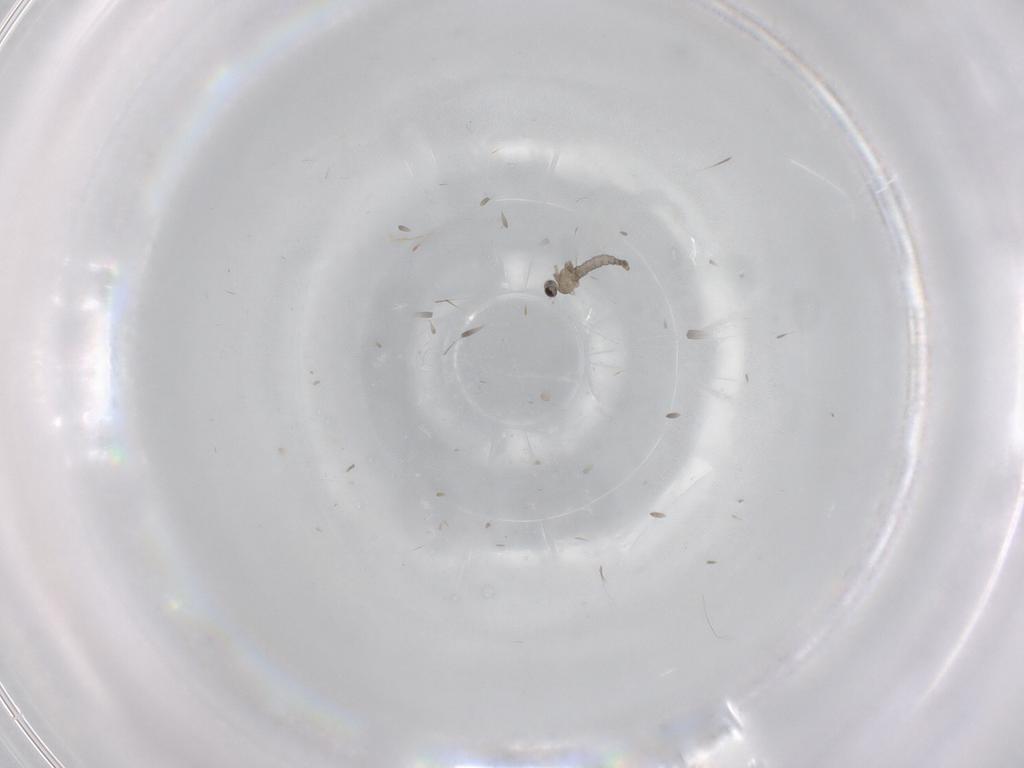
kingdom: Animalia
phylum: Arthropoda
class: Insecta
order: Diptera
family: Cecidomyiidae
